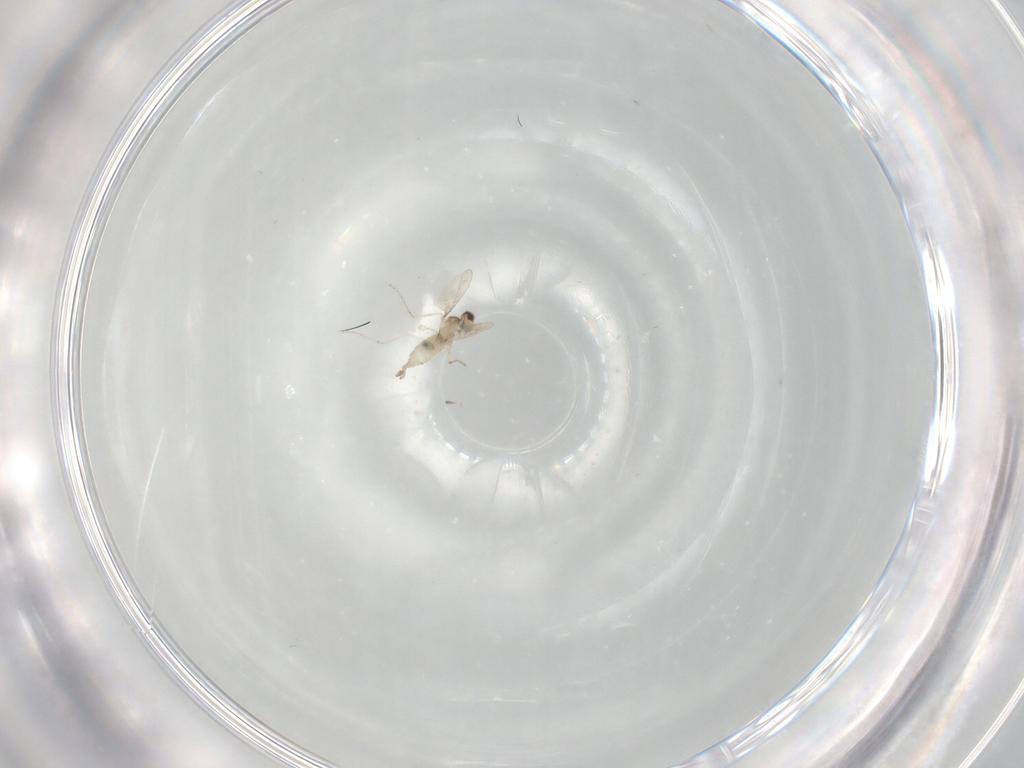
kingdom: Animalia
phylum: Arthropoda
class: Insecta
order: Diptera
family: Cecidomyiidae
